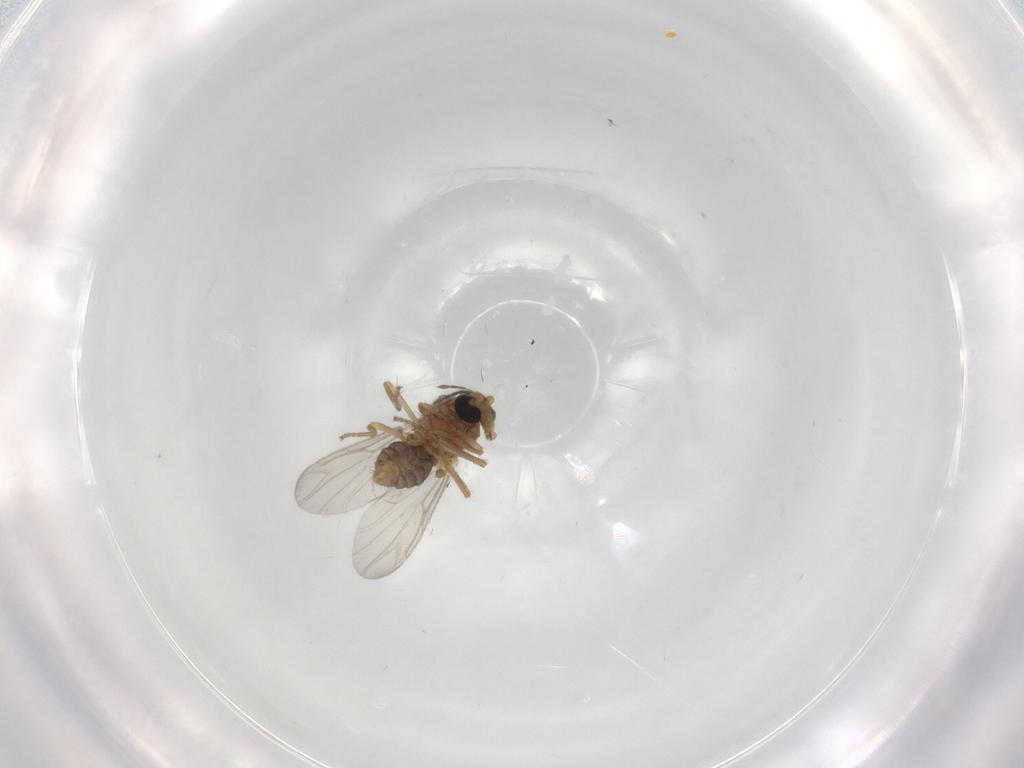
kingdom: Animalia
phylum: Arthropoda
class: Insecta
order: Diptera
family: Ceratopogonidae
